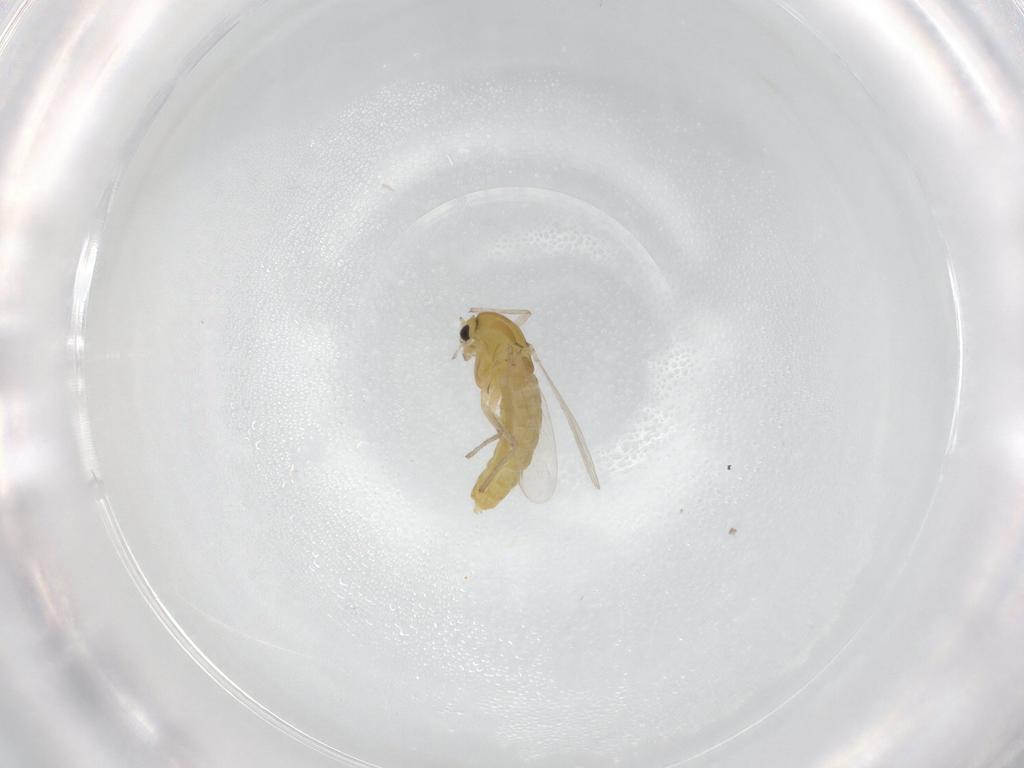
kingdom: Animalia
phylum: Arthropoda
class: Insecta
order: Diptera
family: Chironomidae
